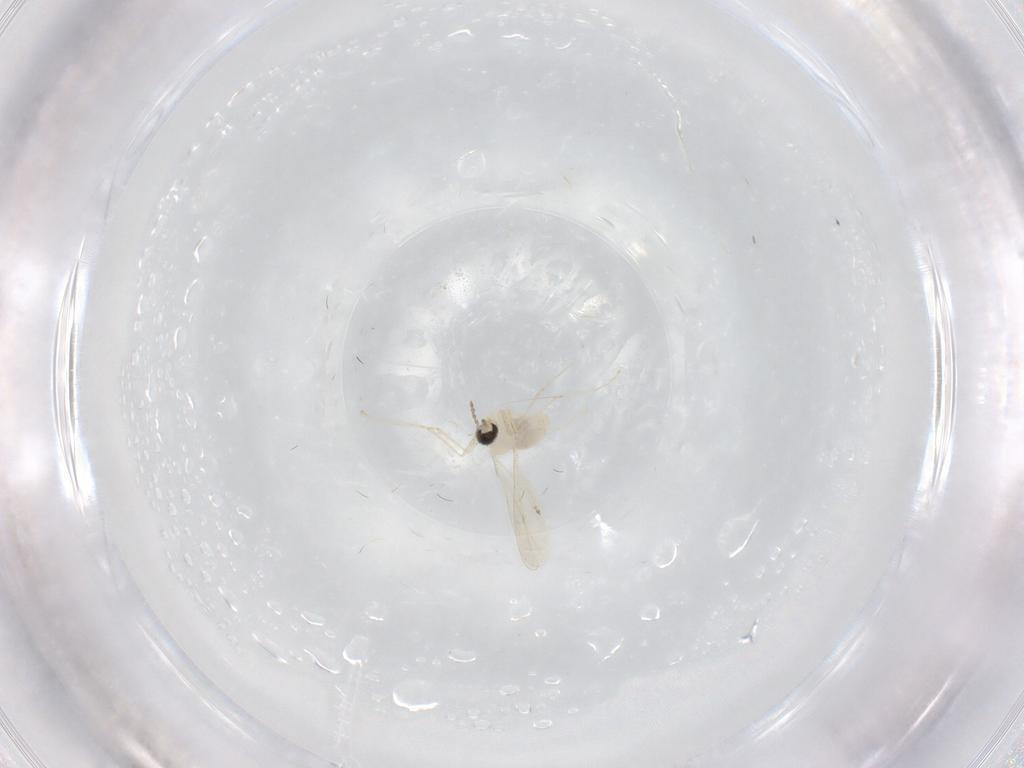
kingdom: Animalia
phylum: Arthropoda
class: Insecta
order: Diptera
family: Cecidomyiidae
